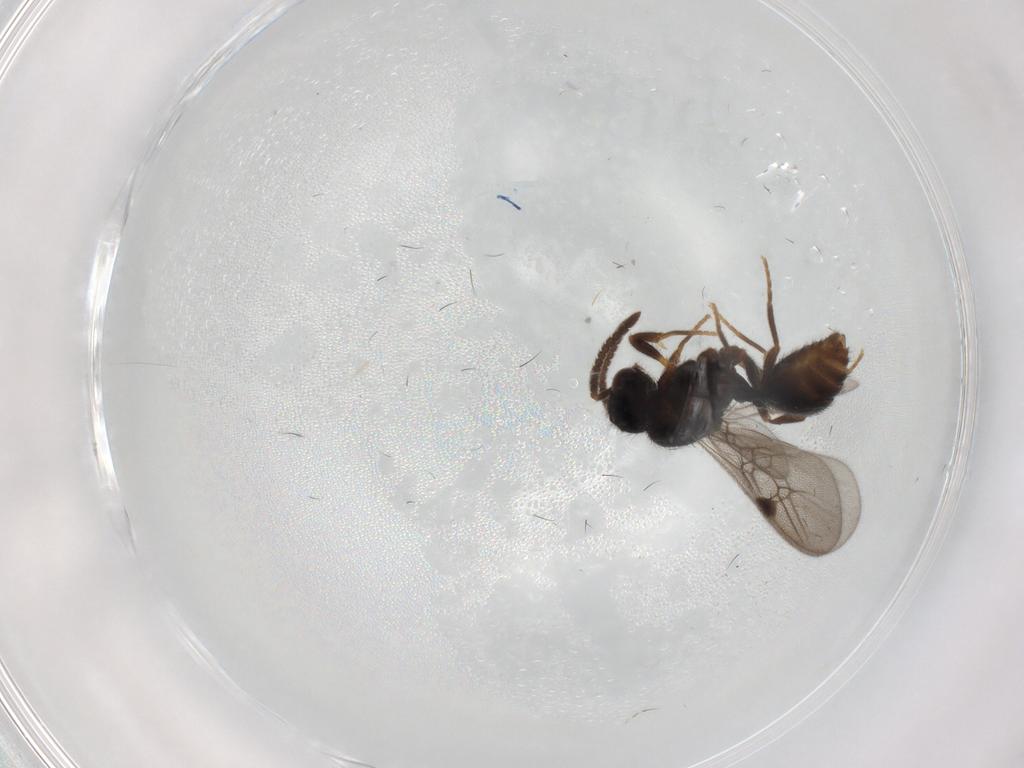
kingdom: Animalia
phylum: Arthropoda
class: Insecta
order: Hymenoptera
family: Formicidae
